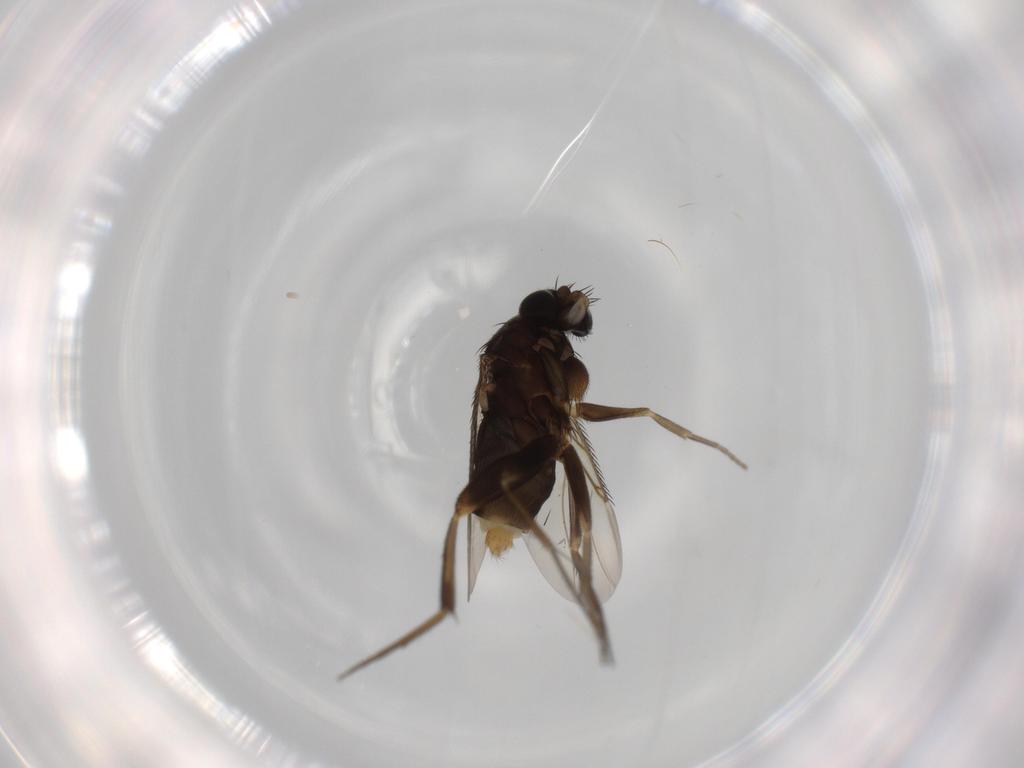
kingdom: Animalia
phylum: Arthropoda
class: Insecta
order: Diptera
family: Phoridae
